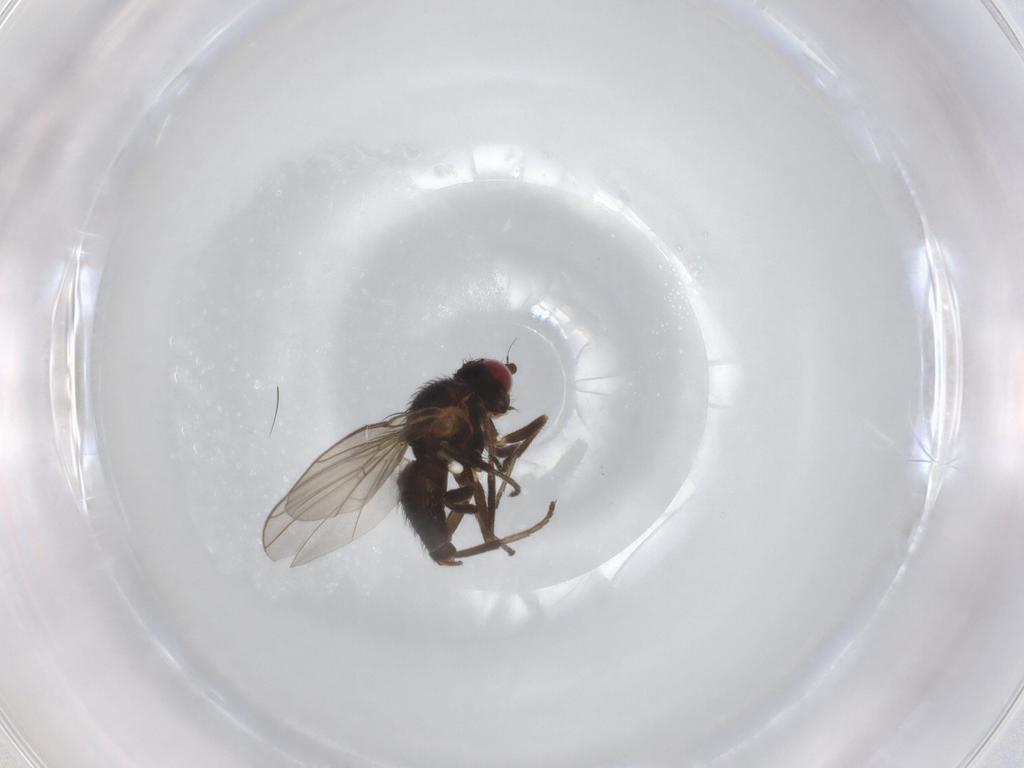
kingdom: Animalia
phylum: Arthropoda
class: Insecta
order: Diptera
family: Agromyzidae
